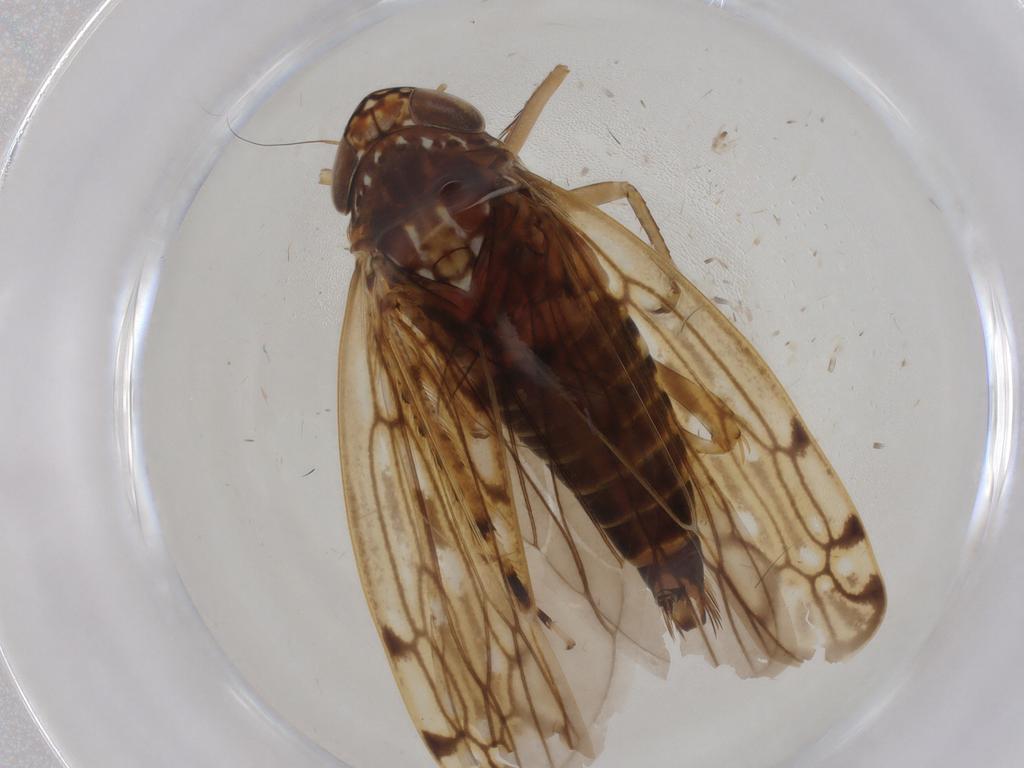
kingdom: Animalia
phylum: Arthropoda
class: Insecta
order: Hemiptera
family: Cicadellidae
